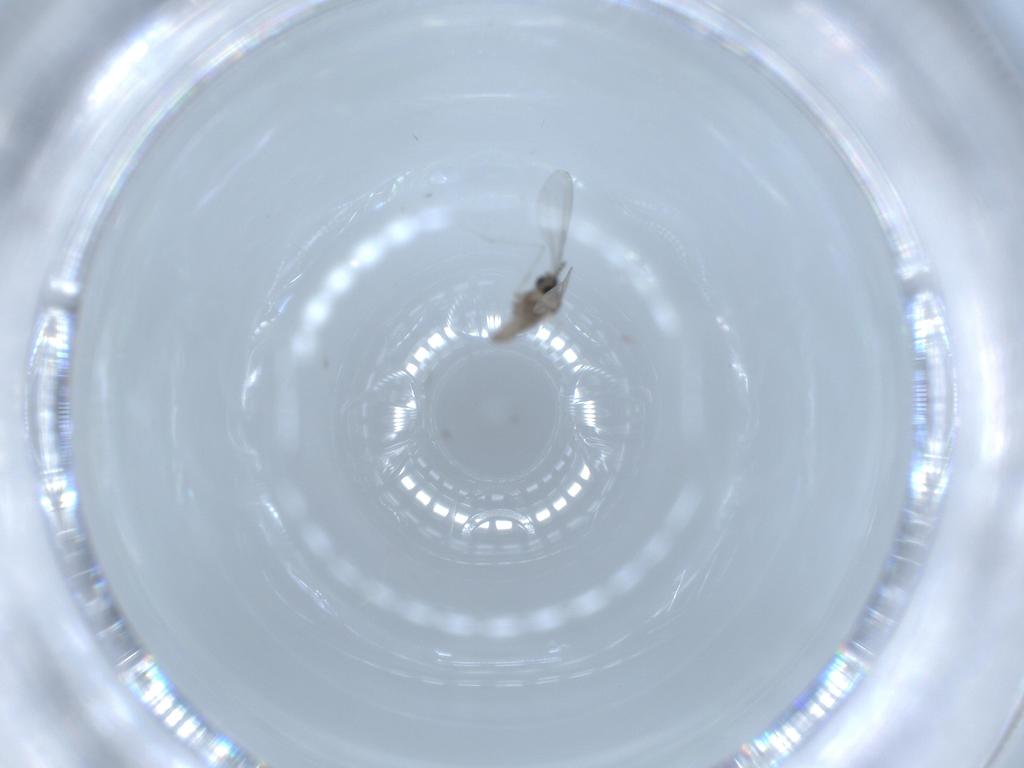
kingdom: Animalia
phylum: Arthropoda
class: Insecta
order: Diptera
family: Cecidomyiidae
